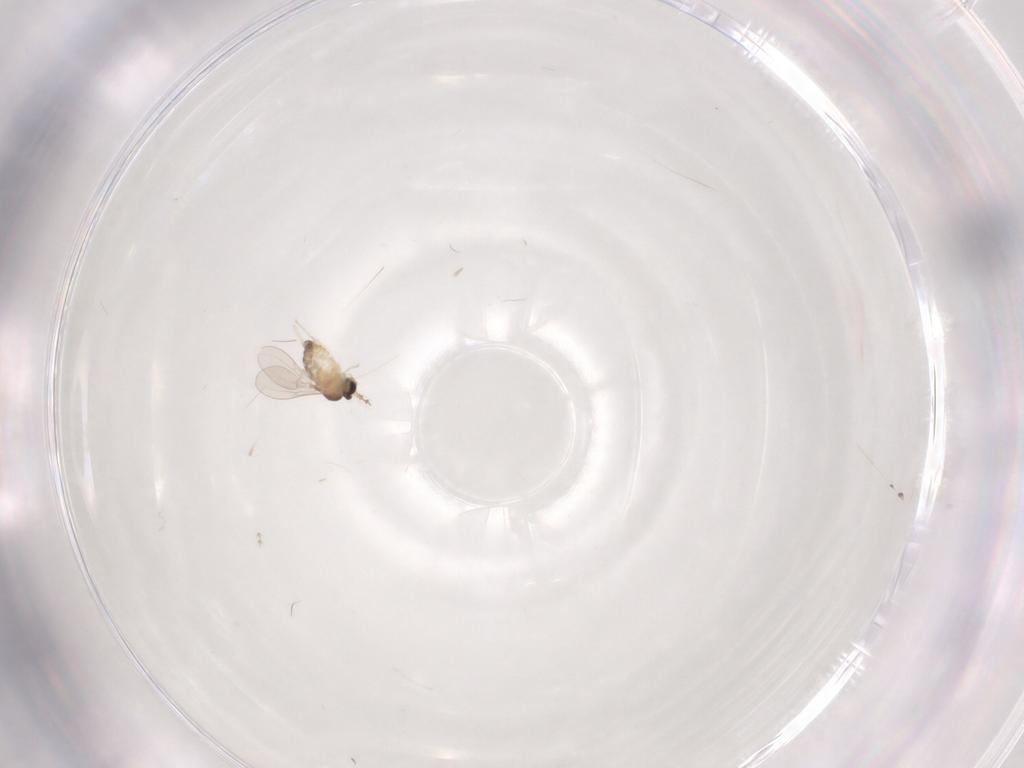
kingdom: Animalia
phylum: Arthropoda
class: Insecta
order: Diptera
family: Cecidomyiidae
